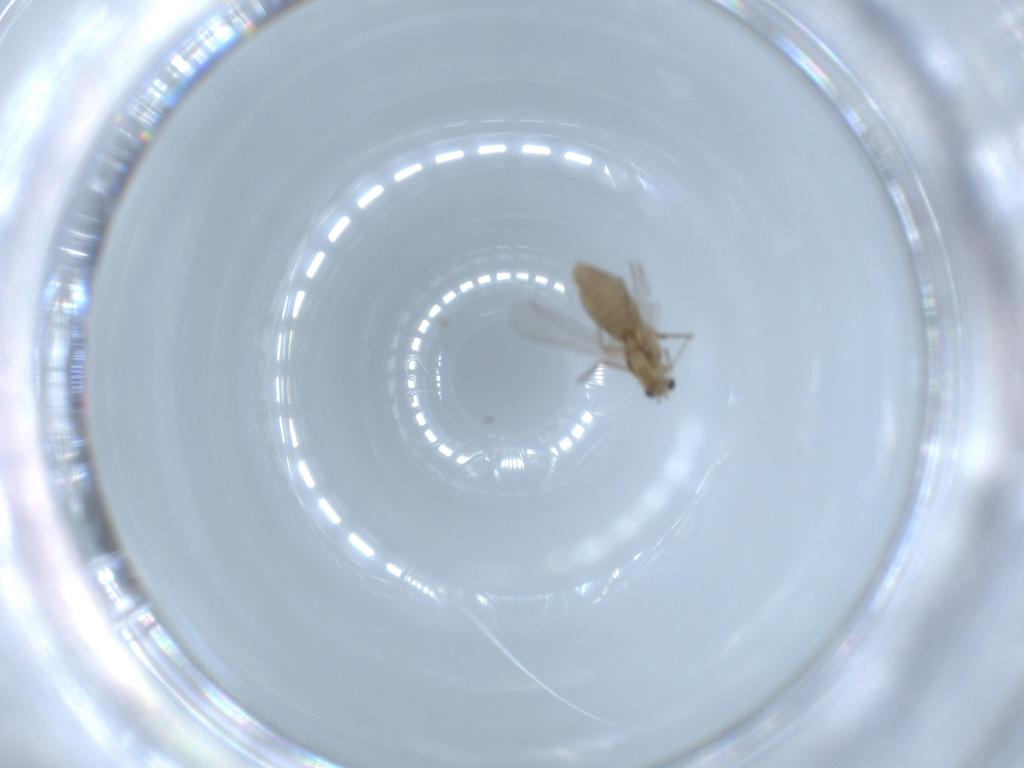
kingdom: Animalia
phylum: Arthropoda
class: Insecta
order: Diptera
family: Chironomidae
